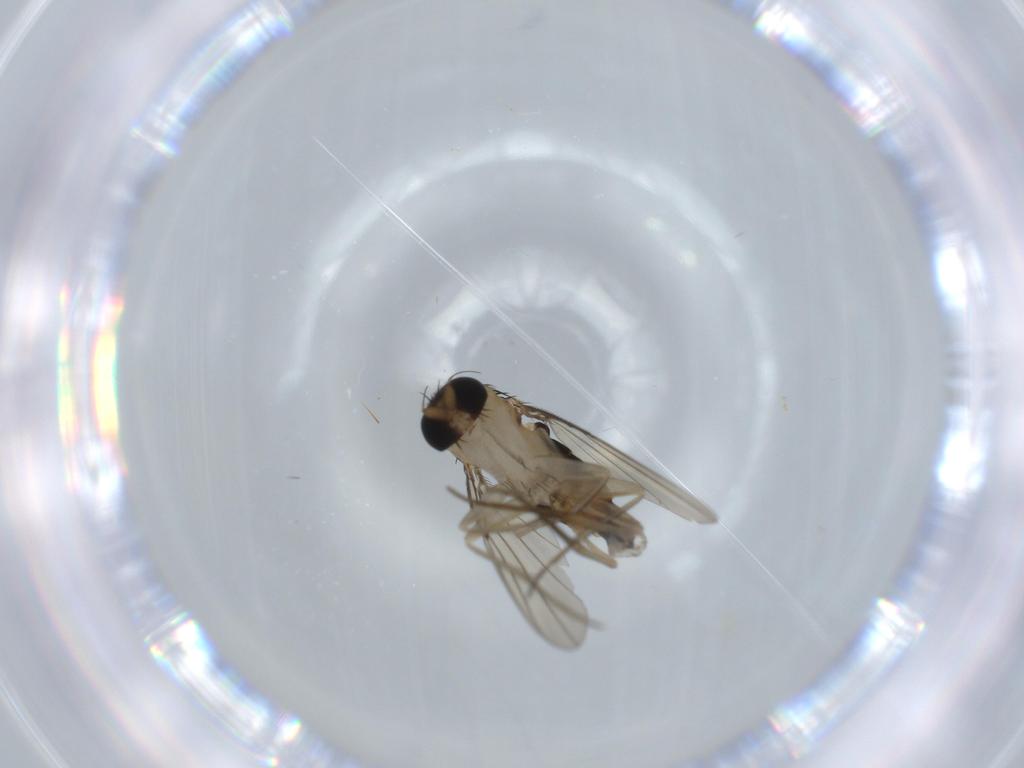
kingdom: Animalia
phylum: Arthropoda
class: Insecta
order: Diptera
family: Phoridae
